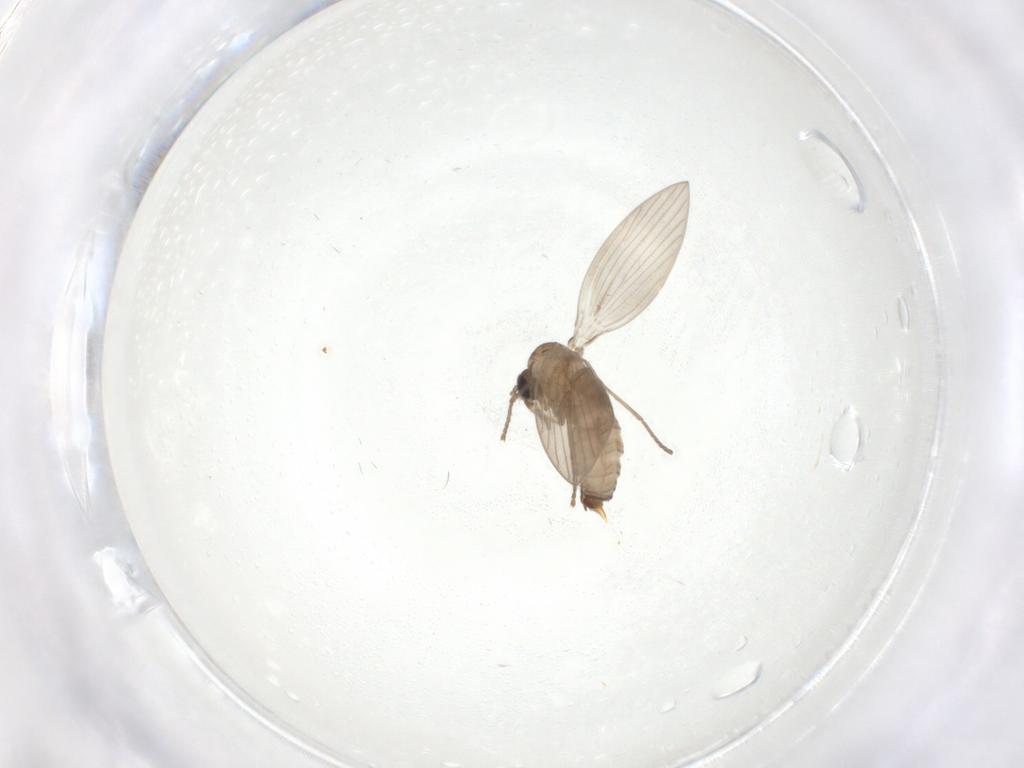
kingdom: Animalia
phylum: Arthropoda
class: Insecta
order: Diptera
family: Psychodidae
